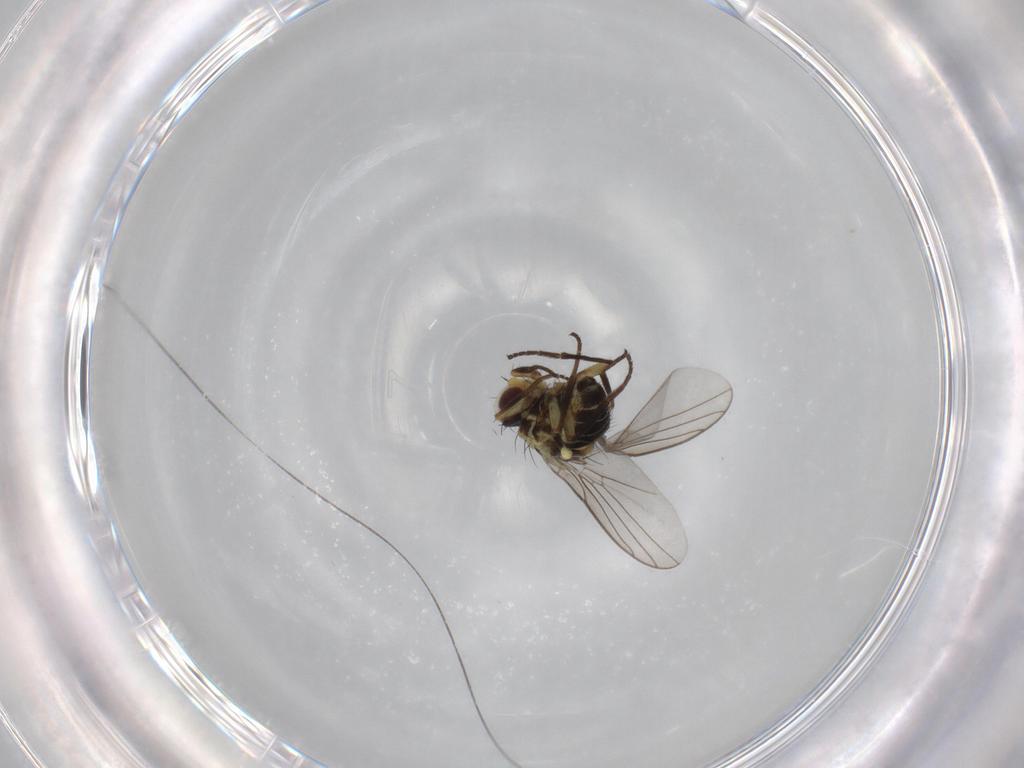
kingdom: Animalia
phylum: Arthropoda
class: Insecta
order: Diptera
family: Agromyzidae
